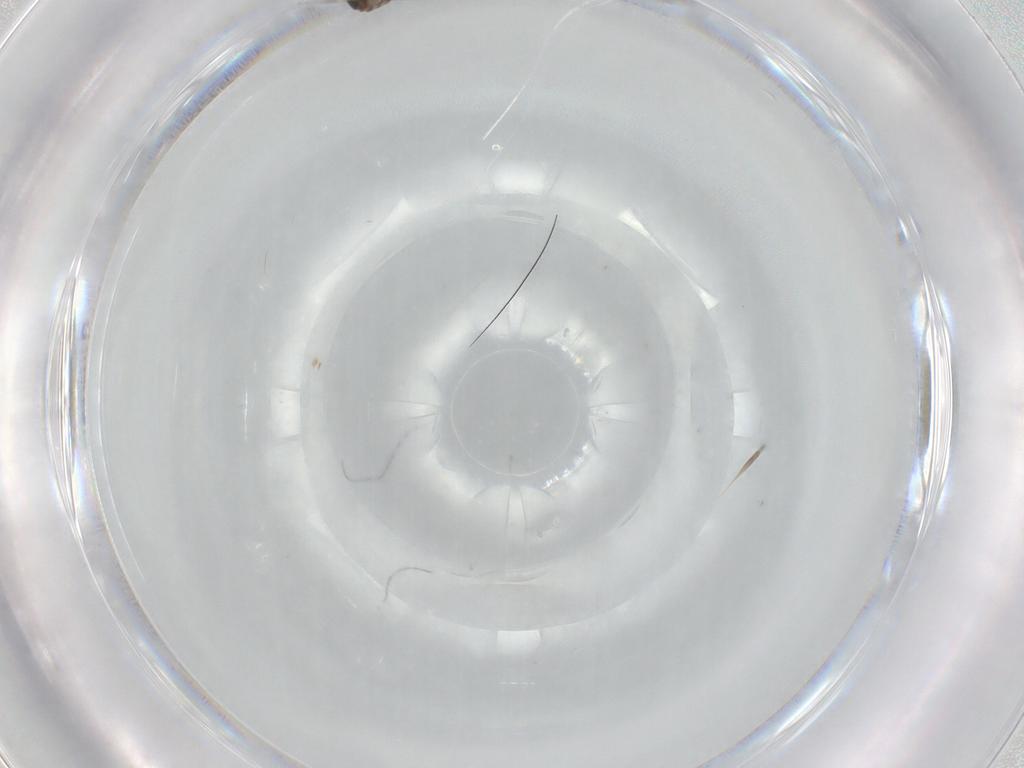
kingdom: Animalia
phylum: Arthropoda
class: Insecta
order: Diptera
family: Cecidomyiidae
